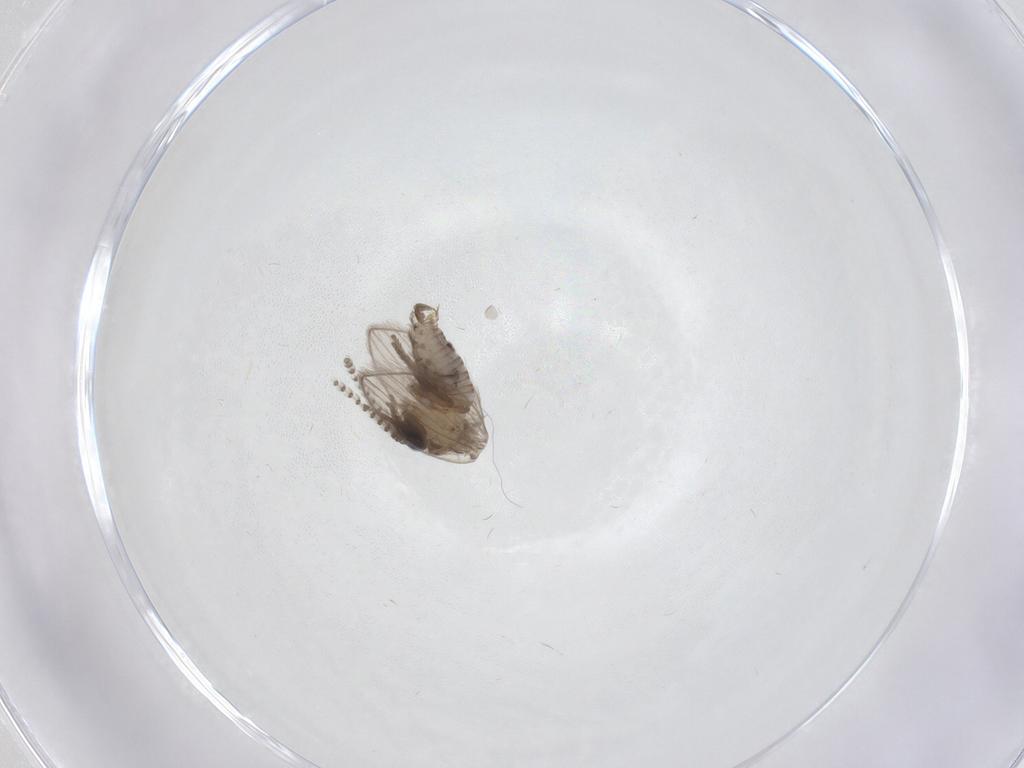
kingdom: Animalia
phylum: Arthropoda
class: Insecta
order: Diptera
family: Psychodidae
